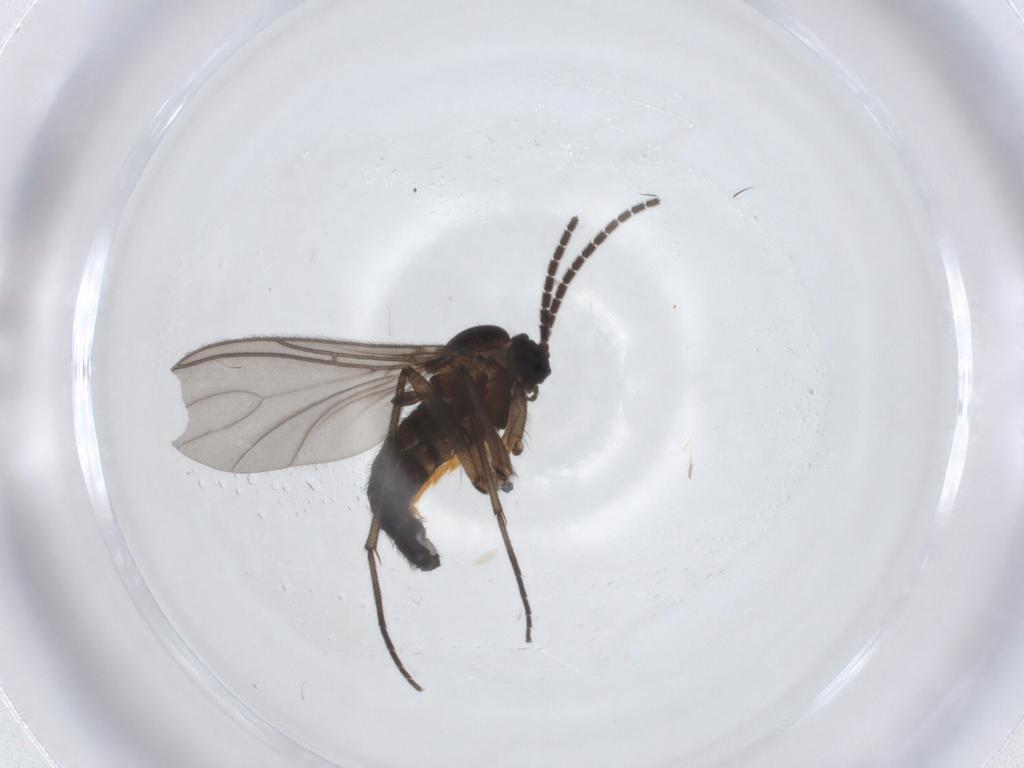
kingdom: Animalia
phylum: Arthropoda
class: Insecta
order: Diptera
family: Sciaridae
